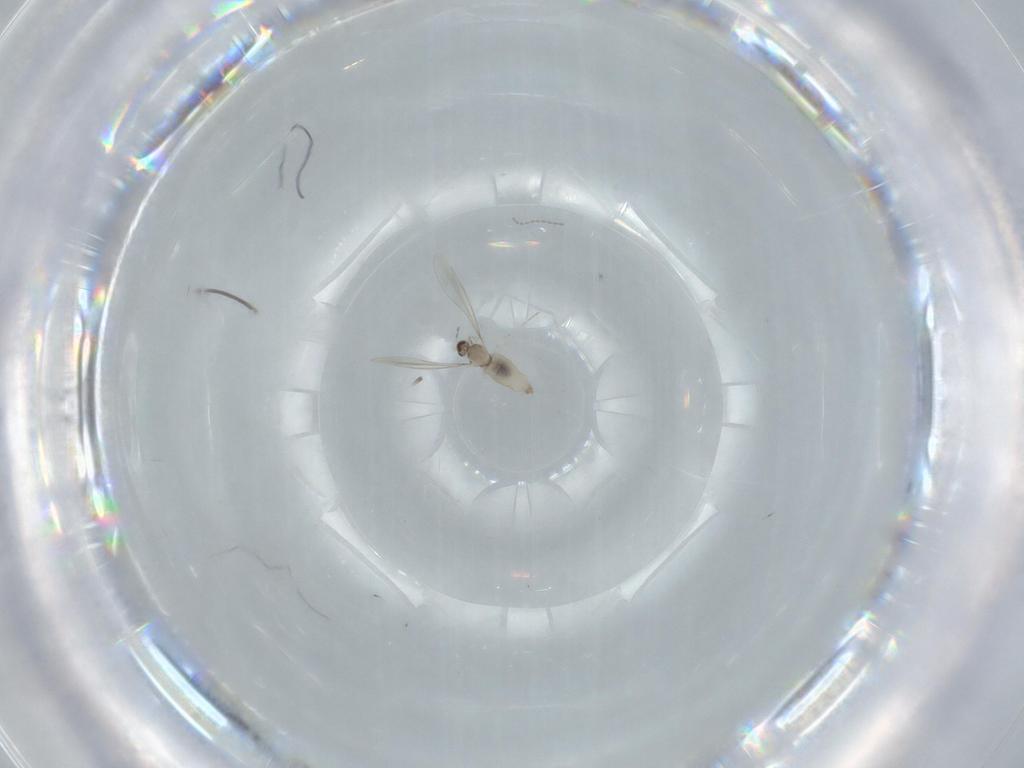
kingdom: Animalia
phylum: Arthropoda
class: Insecta
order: Diptera
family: Cecidomyiidae
